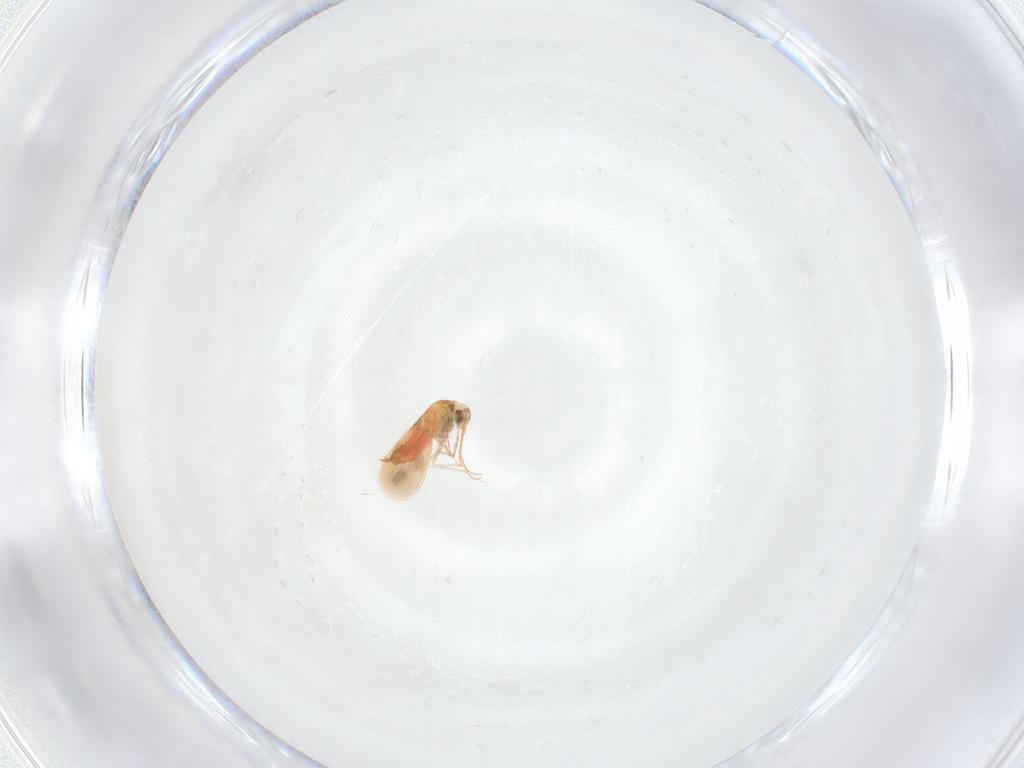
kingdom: Animalia
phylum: Arthropoda
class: Insecta
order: Hemiptera
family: Aleyrodidae
